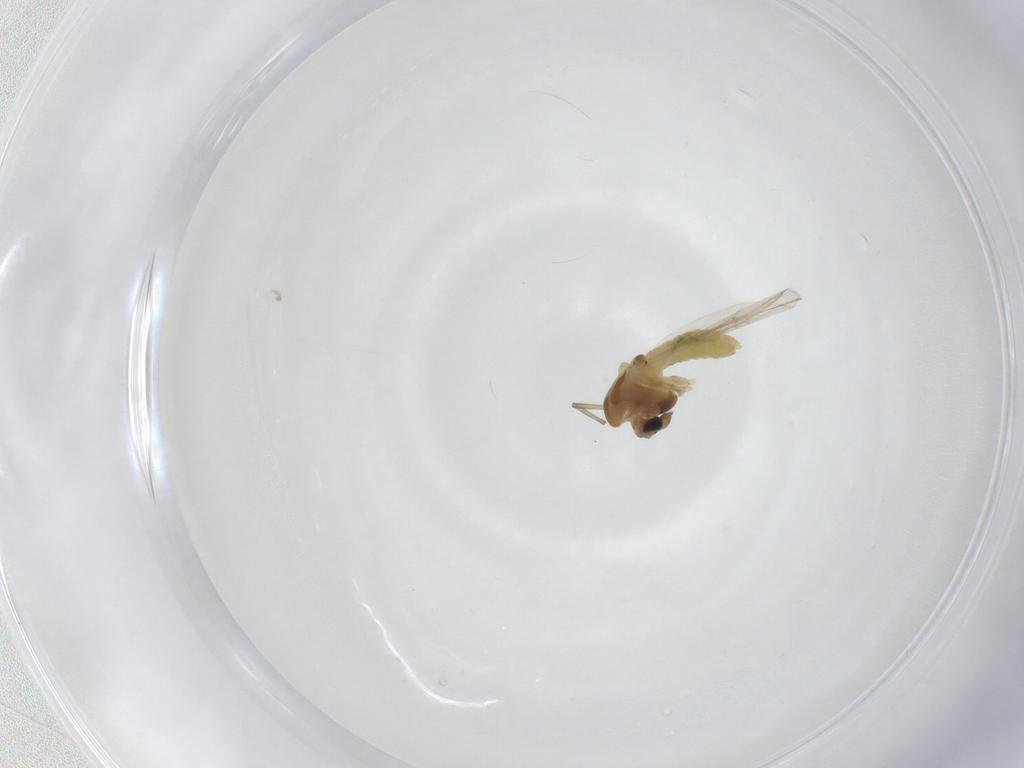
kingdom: Animalia
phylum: Arthropoda
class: Insecta
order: Diptera
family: Chironomidae
